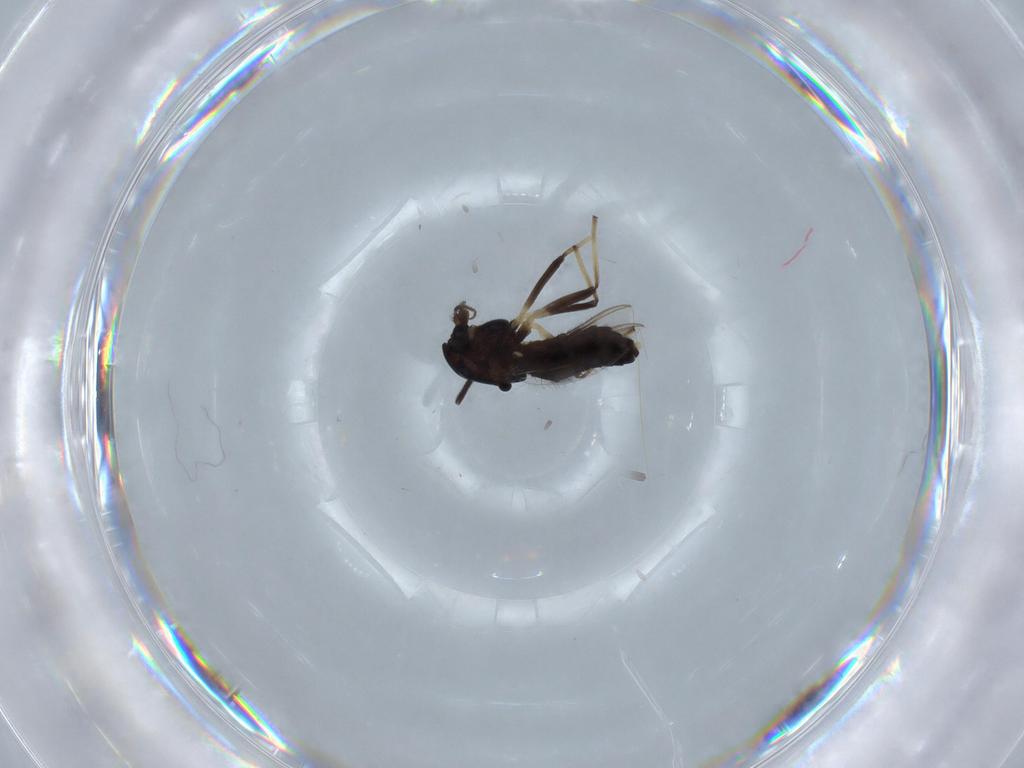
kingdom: Animalia
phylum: Arthropoda
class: Insecta
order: Diptera
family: Chironomidae
